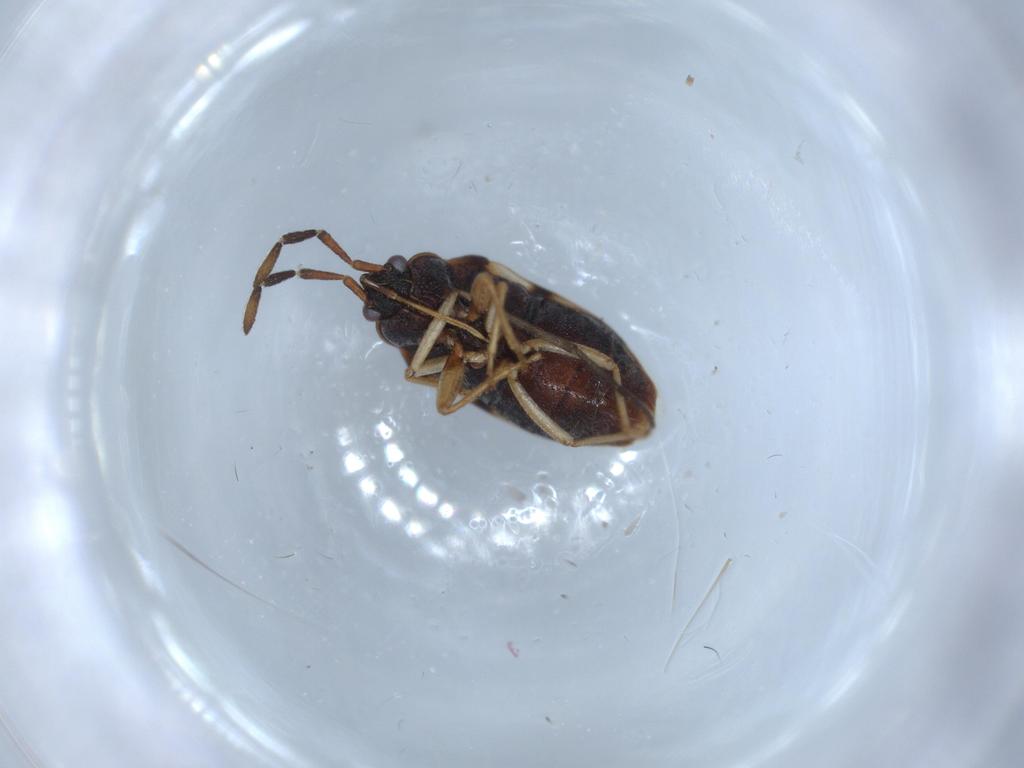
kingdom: Animalia
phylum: Arthropoda
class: Insecta
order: Hemiptera
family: Rhyparochromidae
